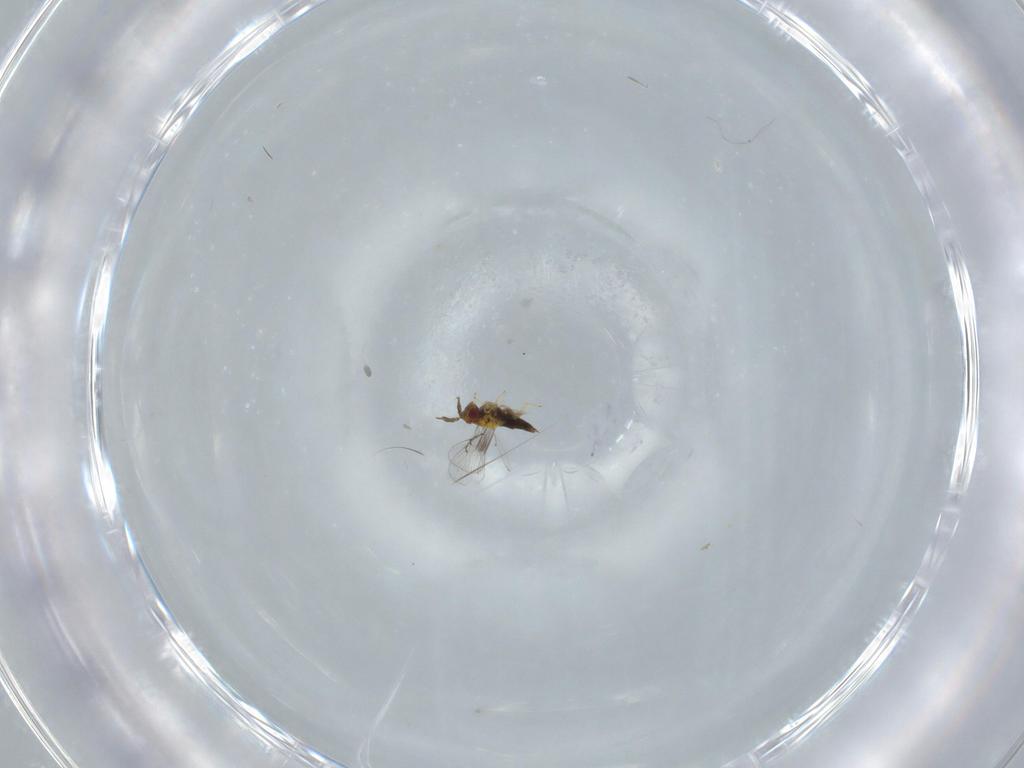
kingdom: Animalia
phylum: Arthropoda
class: Insecta
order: Hymenoptera
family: Trichogrammatidae
